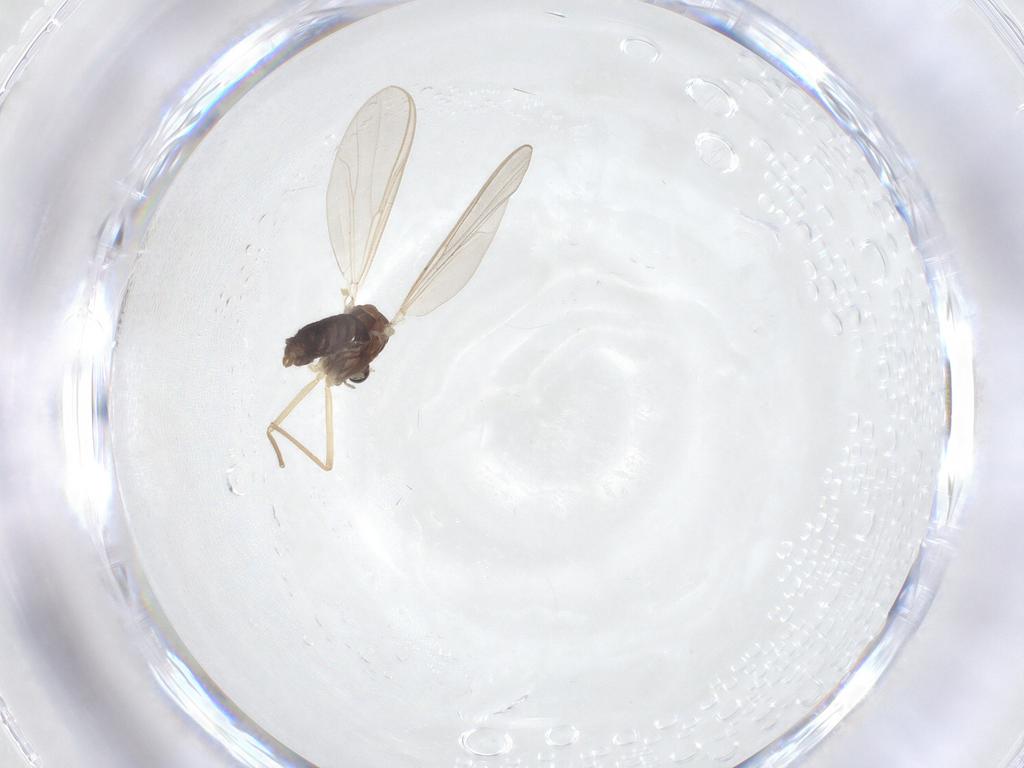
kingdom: Animalia
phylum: Arthropoda
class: Insecta
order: Diptera
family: Chironomidae
